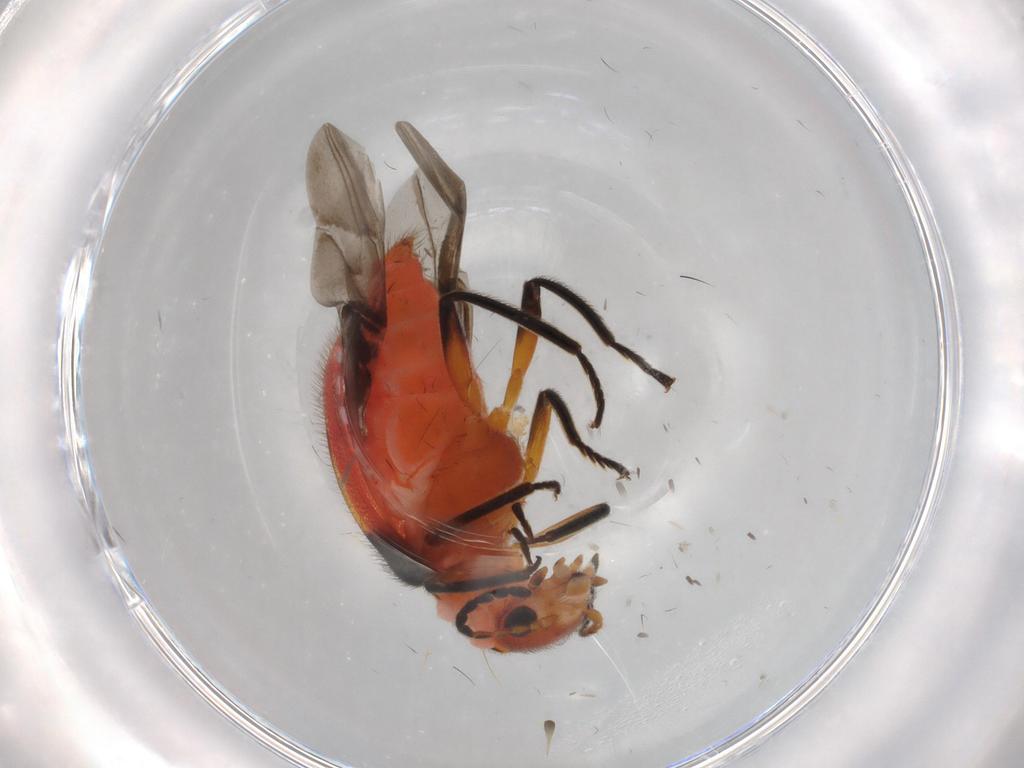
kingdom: Animalia
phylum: Arthropoda
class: Insecta
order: Coleoptera
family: Melyridae
